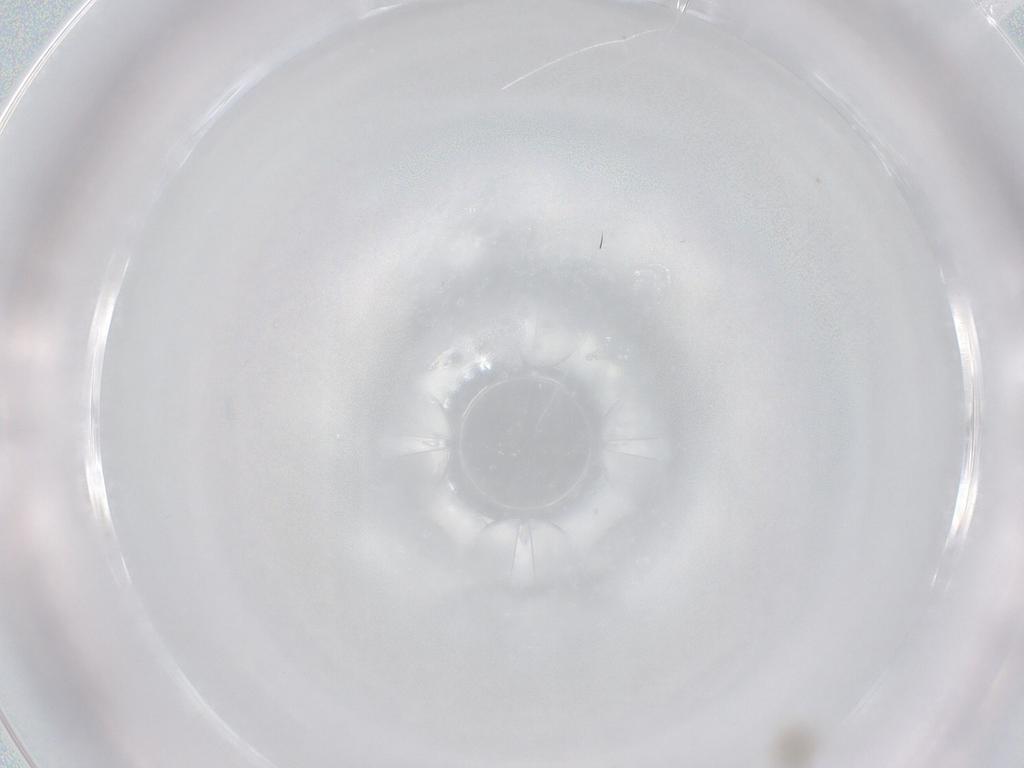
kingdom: Animalia
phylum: Arthropoda
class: Insecta
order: Diptera
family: Cecidomyiidae
